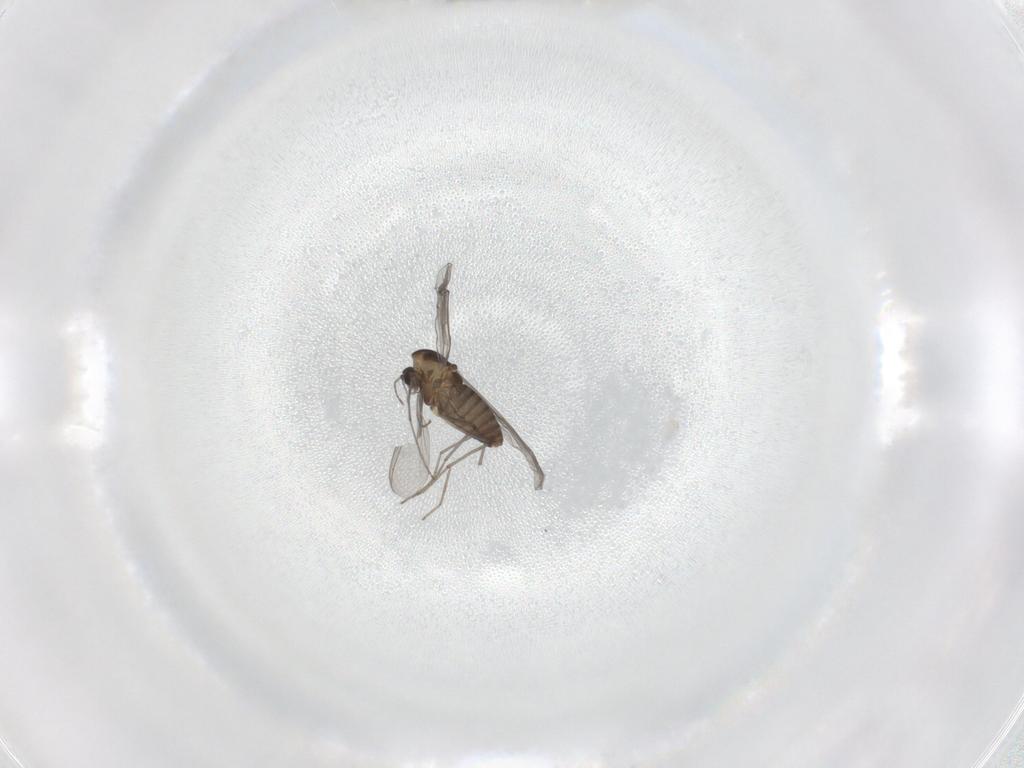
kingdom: Animalia
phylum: Arthropoda
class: Insecta
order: Diptera
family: Chironomidae
